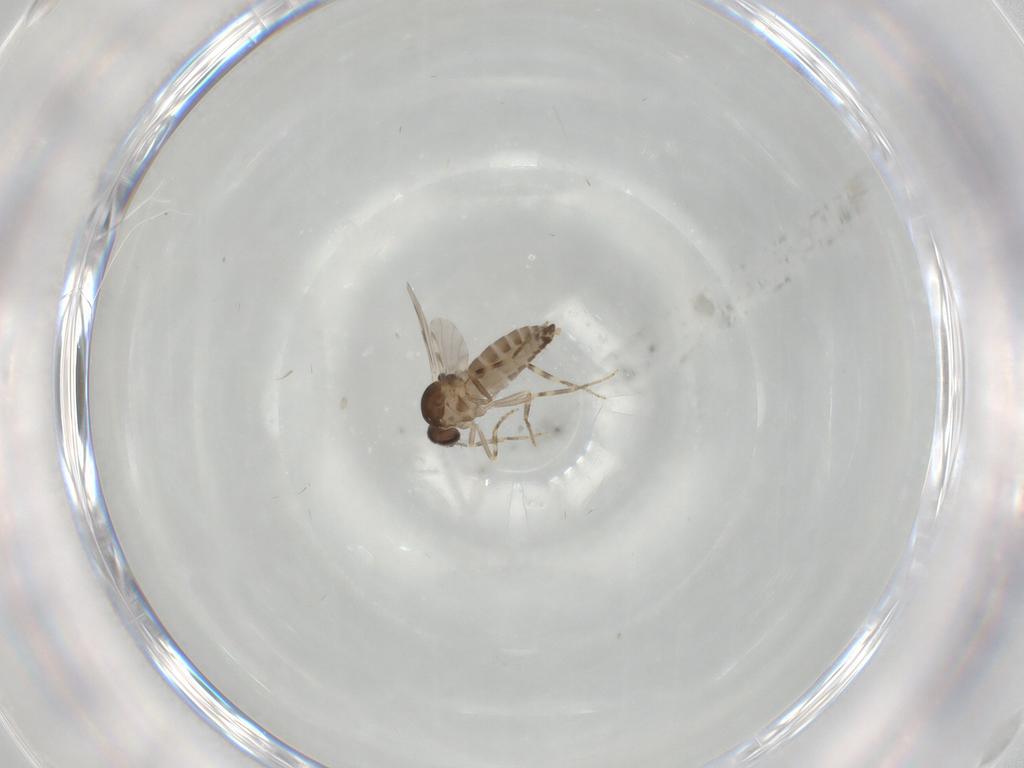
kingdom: Animalia
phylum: Arthropoda
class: Insecta
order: Diptera
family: Ceratopogonidae
